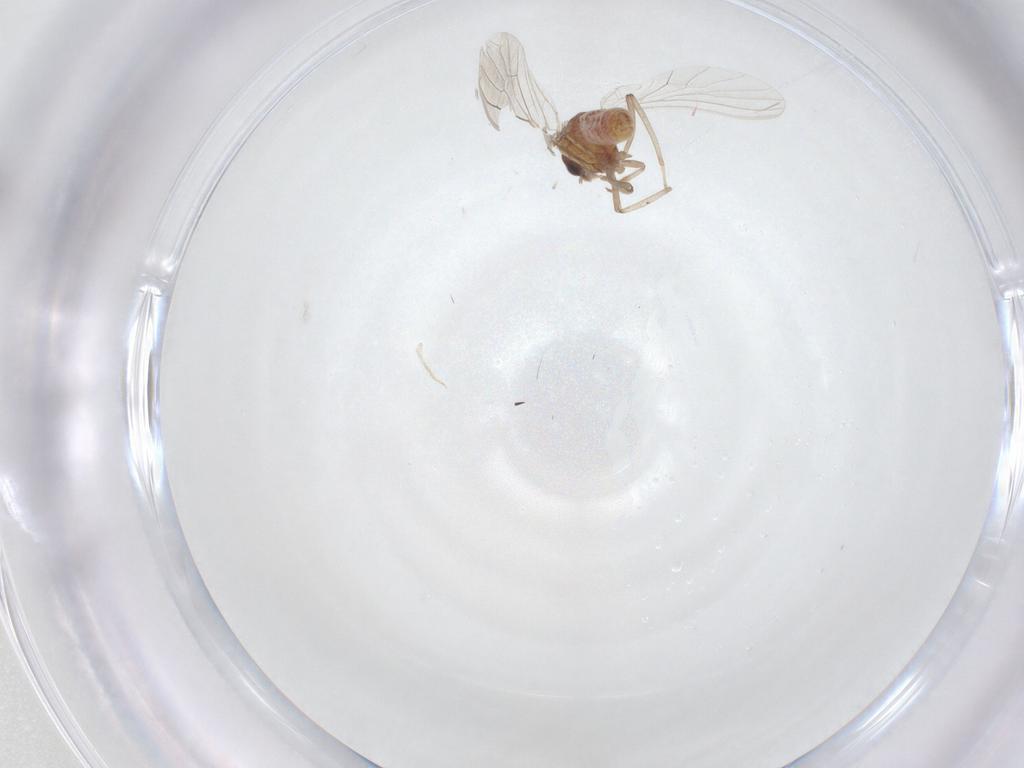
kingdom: Animalia
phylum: Arthropoda
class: Insecta
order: Neuroptera
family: Coniopterygidae
